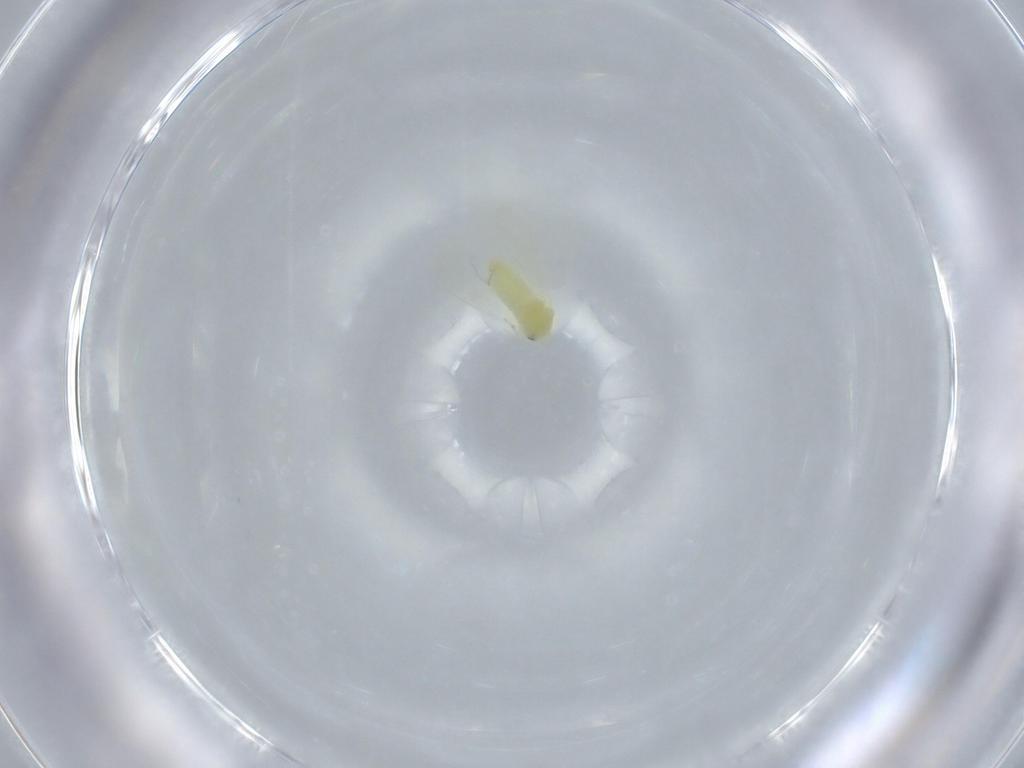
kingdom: Animalia
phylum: Arthropoda
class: Insecta
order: Hemiptera
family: Aleyrodidae
